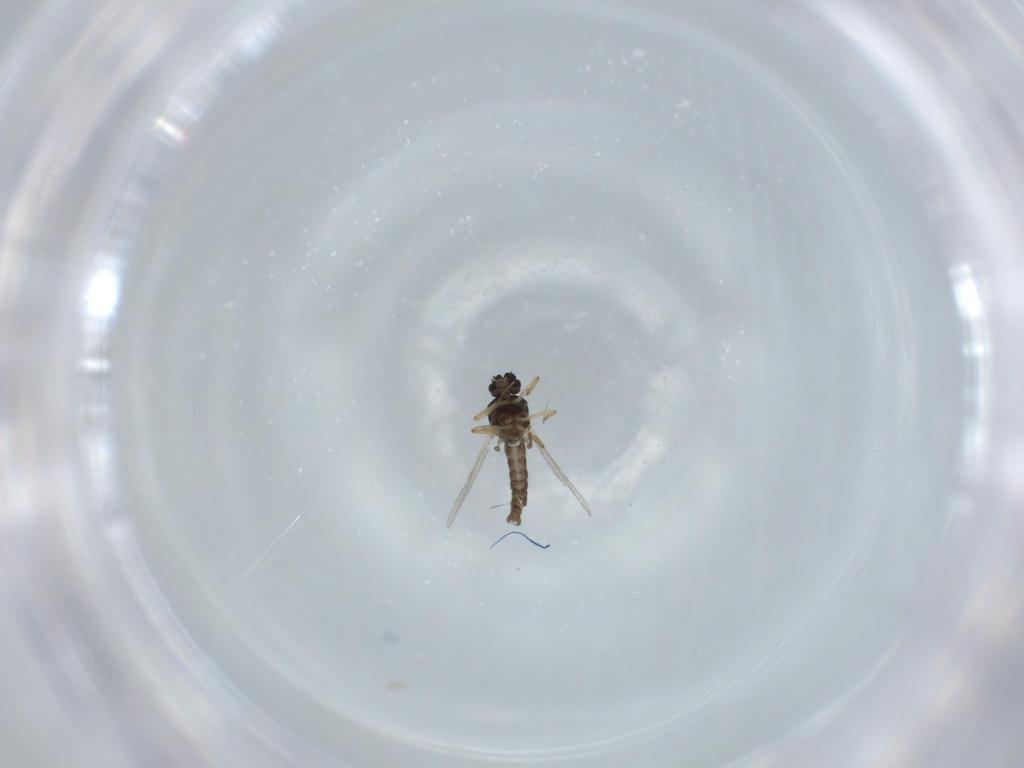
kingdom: Animalia
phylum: Arthropoda
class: Insecta
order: Diptera
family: Ceratopogonidae
